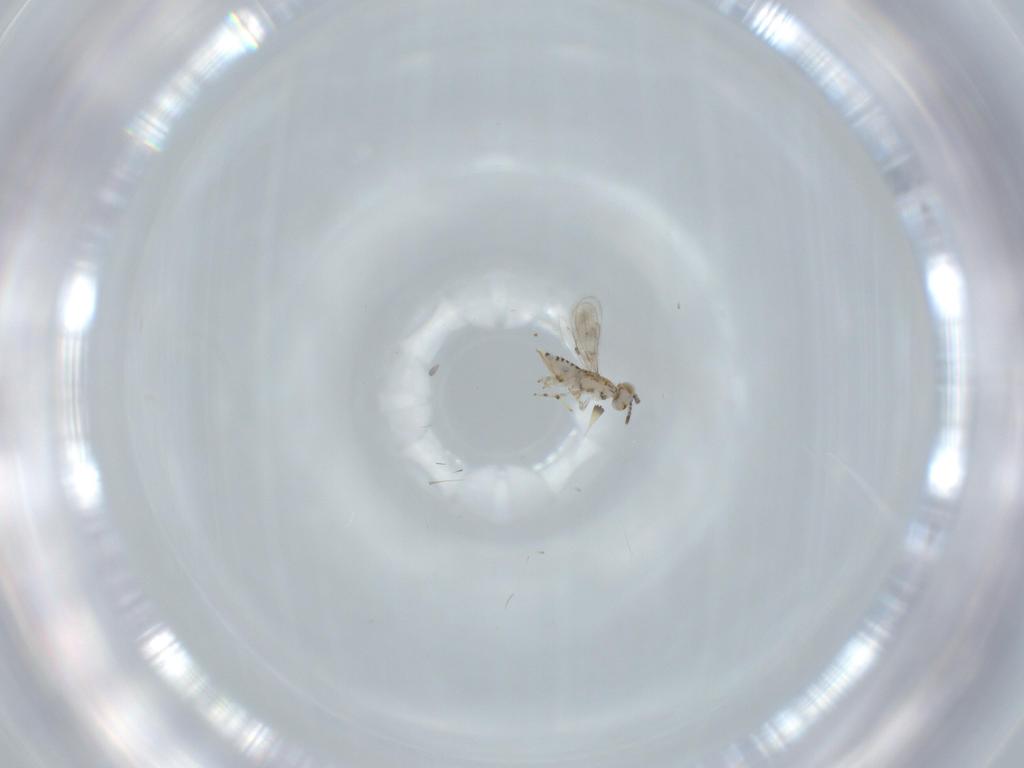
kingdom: Animalia
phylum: Arthropoda
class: Insecta
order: Hymenoptera
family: Aphelinidae
